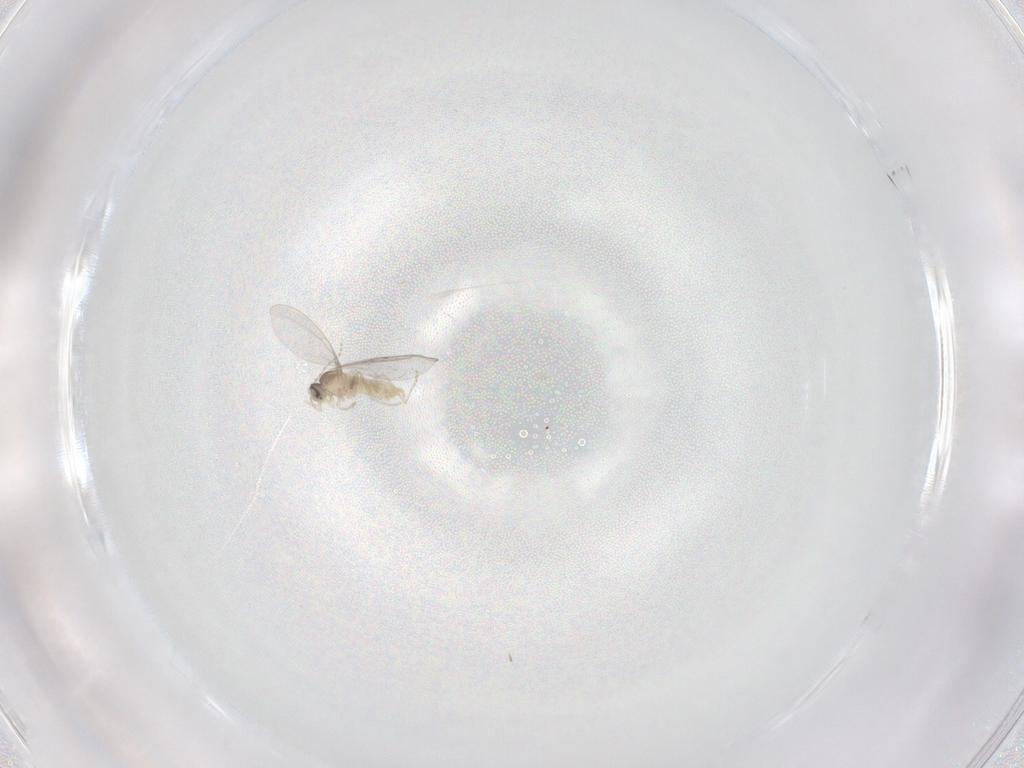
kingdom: Animalia
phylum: Arthropoda
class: Insecta
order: Diptera
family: Cecidomyiidae
